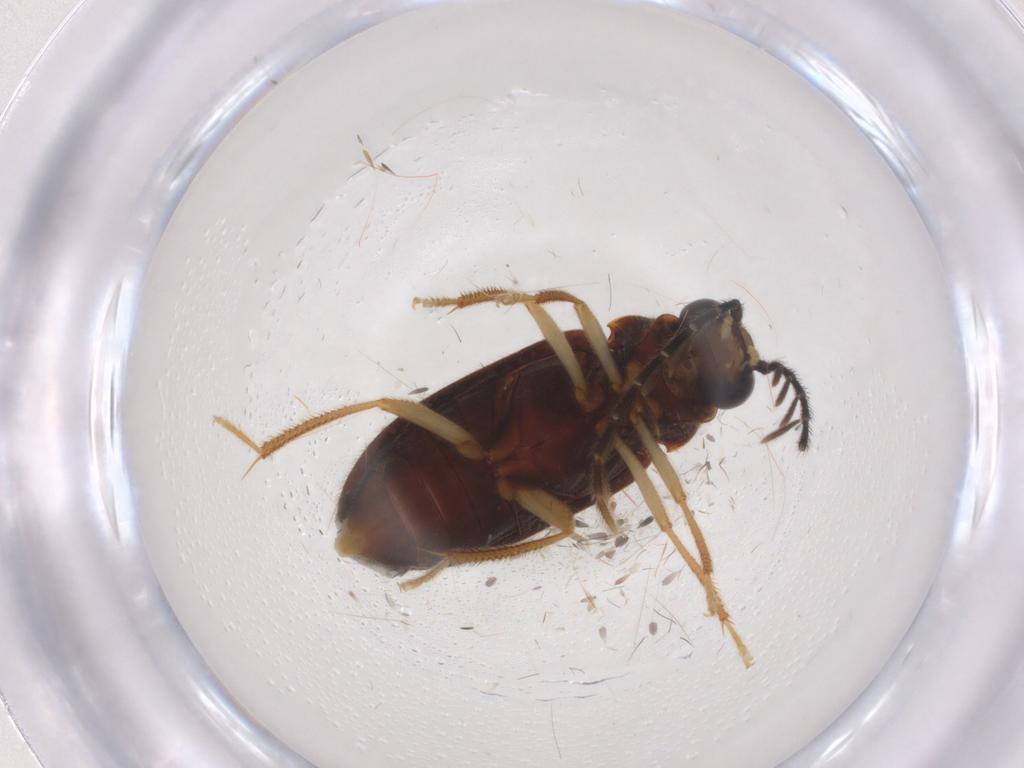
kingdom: Animalia
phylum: Arthropoda
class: Insecta
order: Coleoptera
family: Ptilodactylidae
